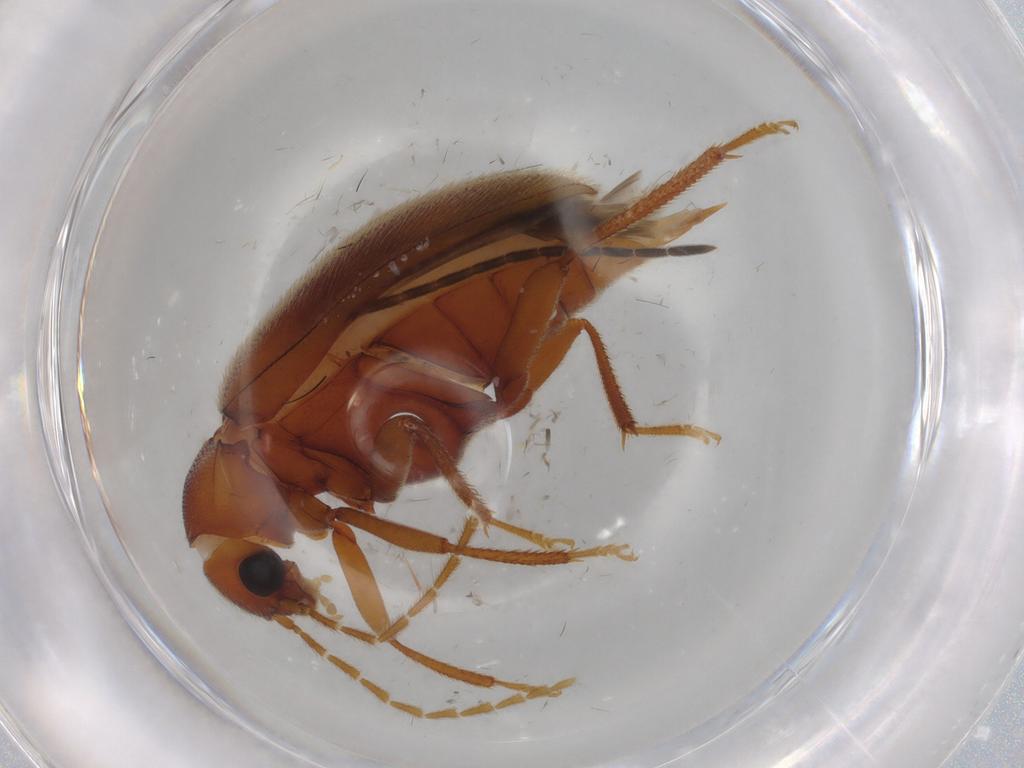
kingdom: Animalia
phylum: Arthropoda
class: Insecta
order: Coleoptera
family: Ptilodactylidae
